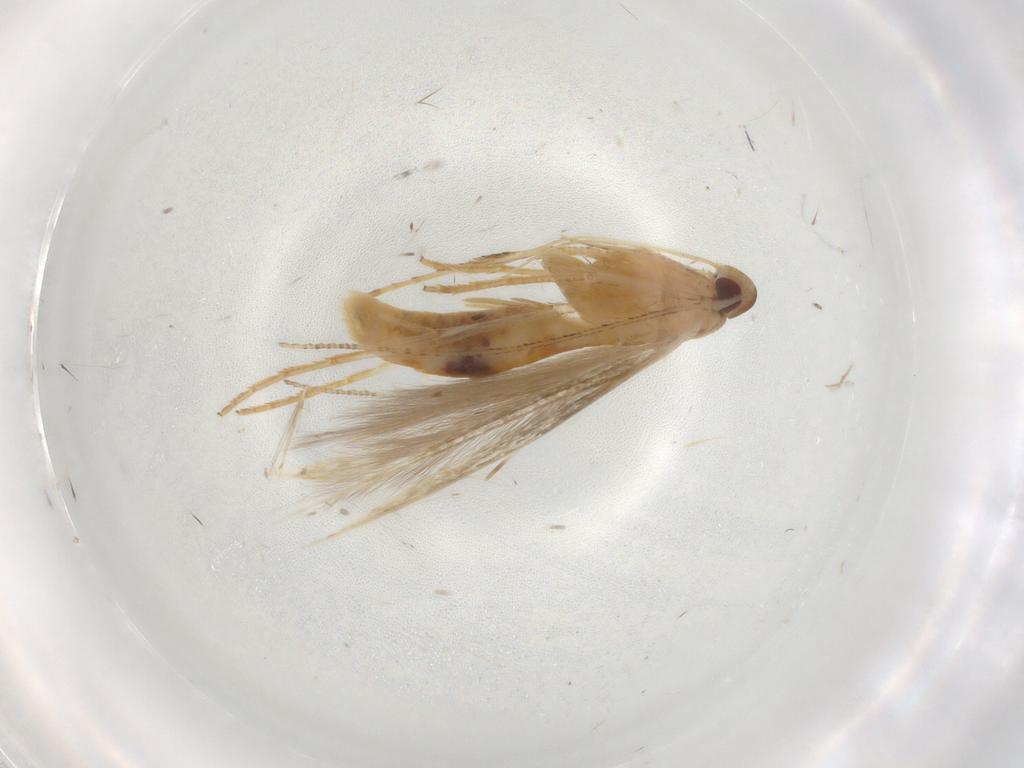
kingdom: Animalia
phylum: Arthropoda
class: Insecta
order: Lepidoptera
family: Cosmopterigidae
